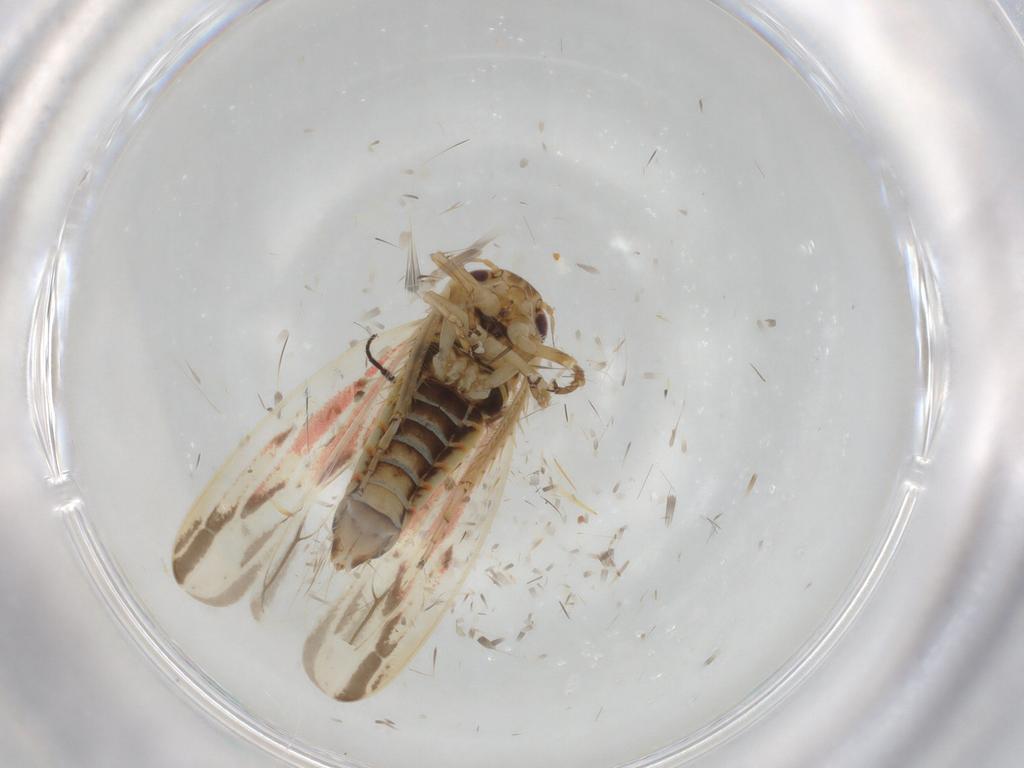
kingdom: Animalia
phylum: Arthropoda
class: Insecta
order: Hemiptera
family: Cicadellidae
